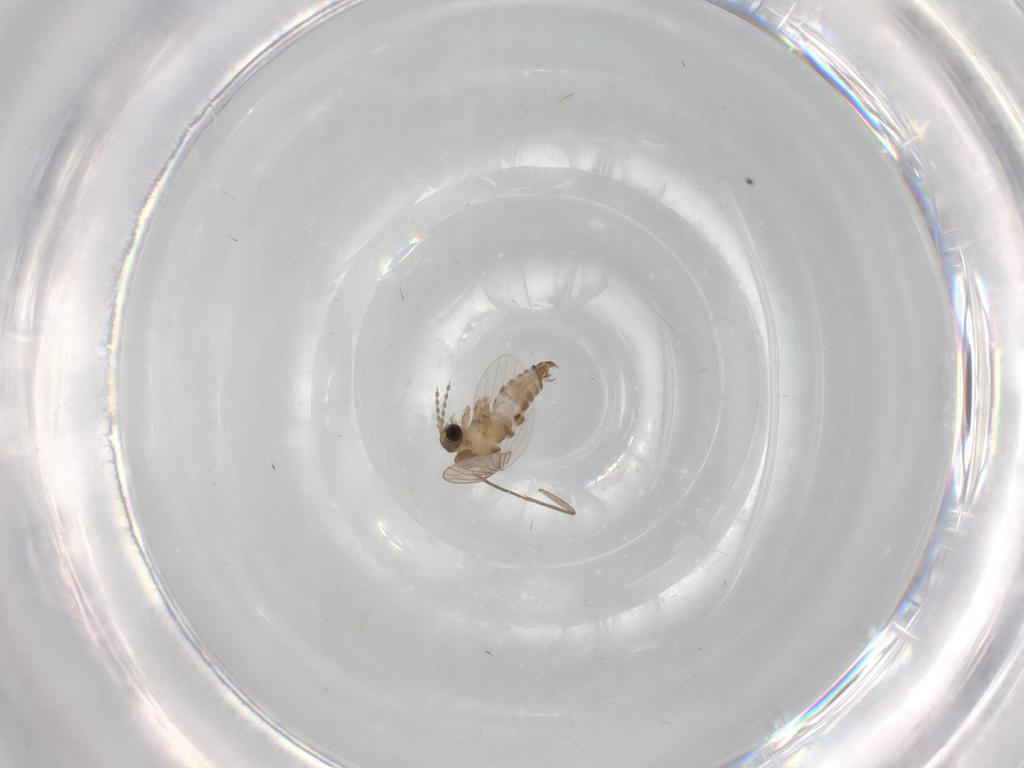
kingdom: Animalia
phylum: Arthropoda
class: Insecta
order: Diptera
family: Psychodidae
